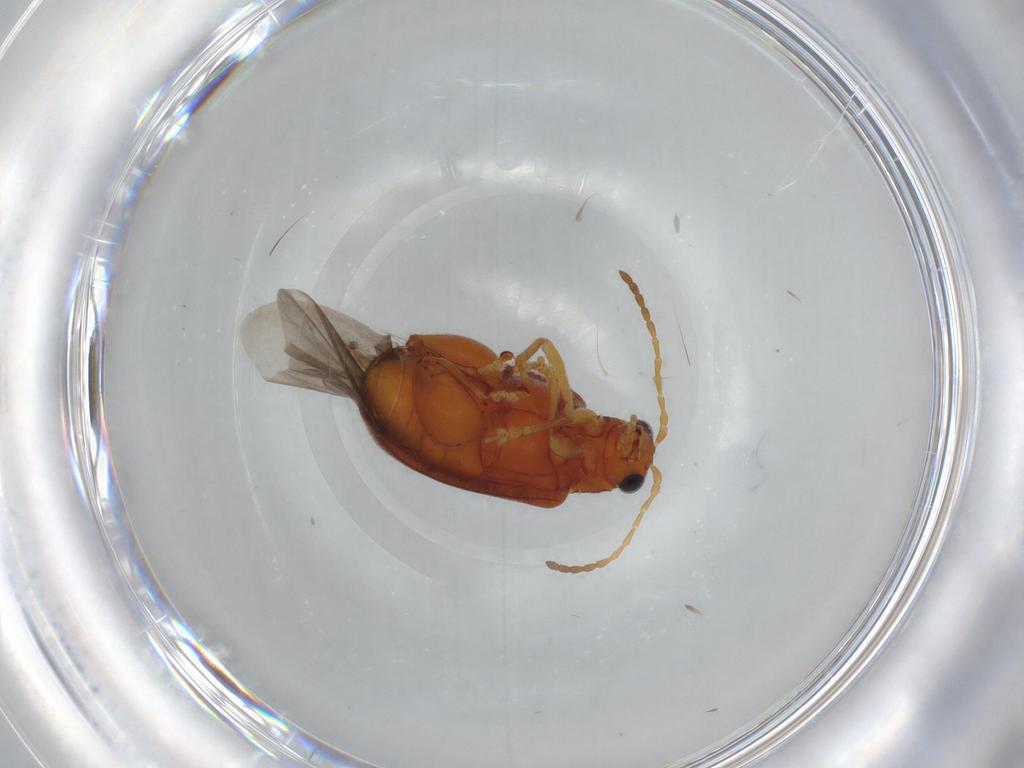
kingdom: Animalia
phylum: Arthropoda
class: Insecta
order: Coleoptera
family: Chrysomelidae
